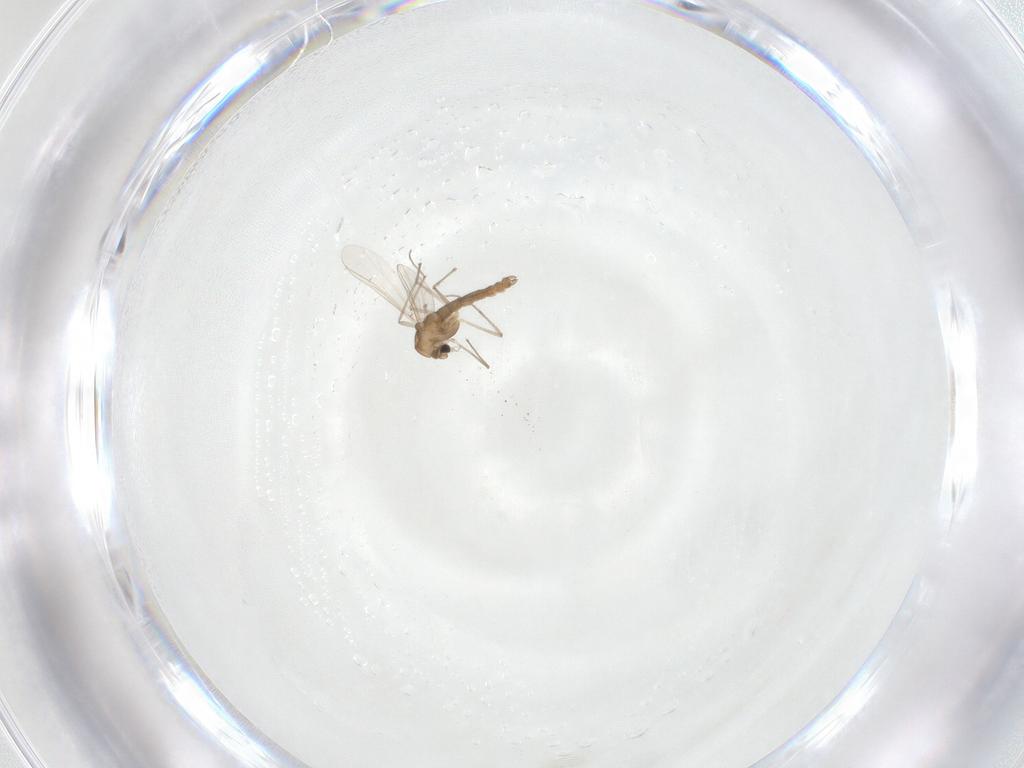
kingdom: Animalia
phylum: Arthropoda
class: Insecta
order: Diptera
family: Chironomidae
